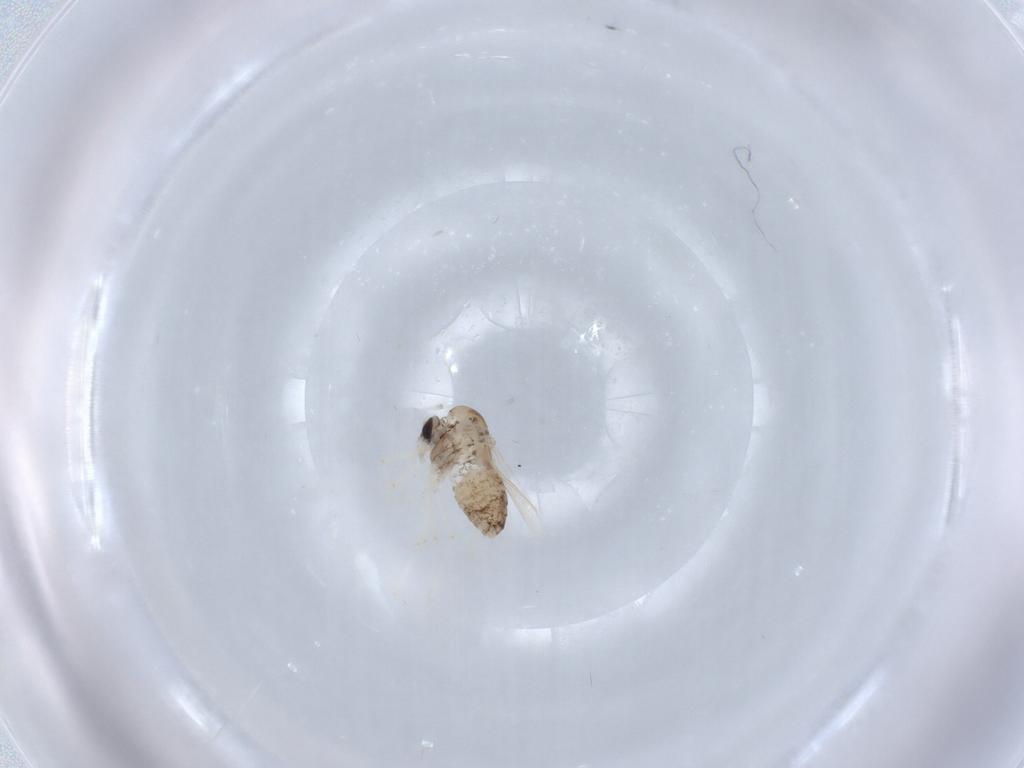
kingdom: Animalia
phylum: Arthropoda
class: Insecta
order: Diptera
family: Chironomidae
